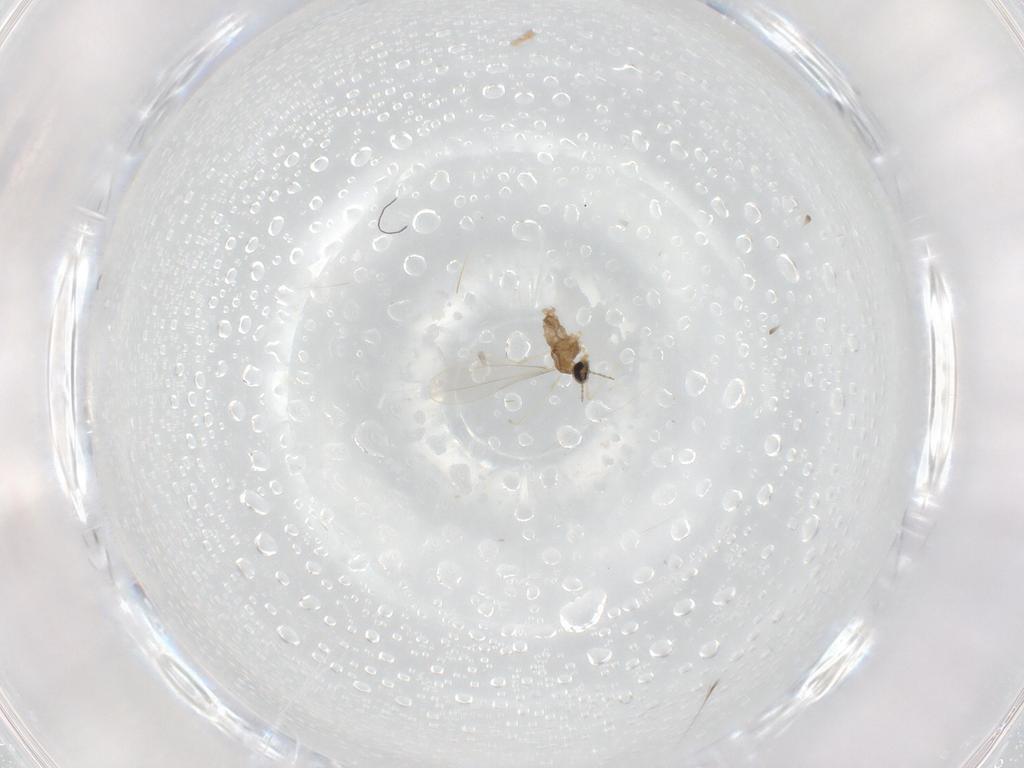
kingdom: Animalia
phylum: Arthropoda
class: Insecta
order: Diptera
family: Cecidomyiidae
